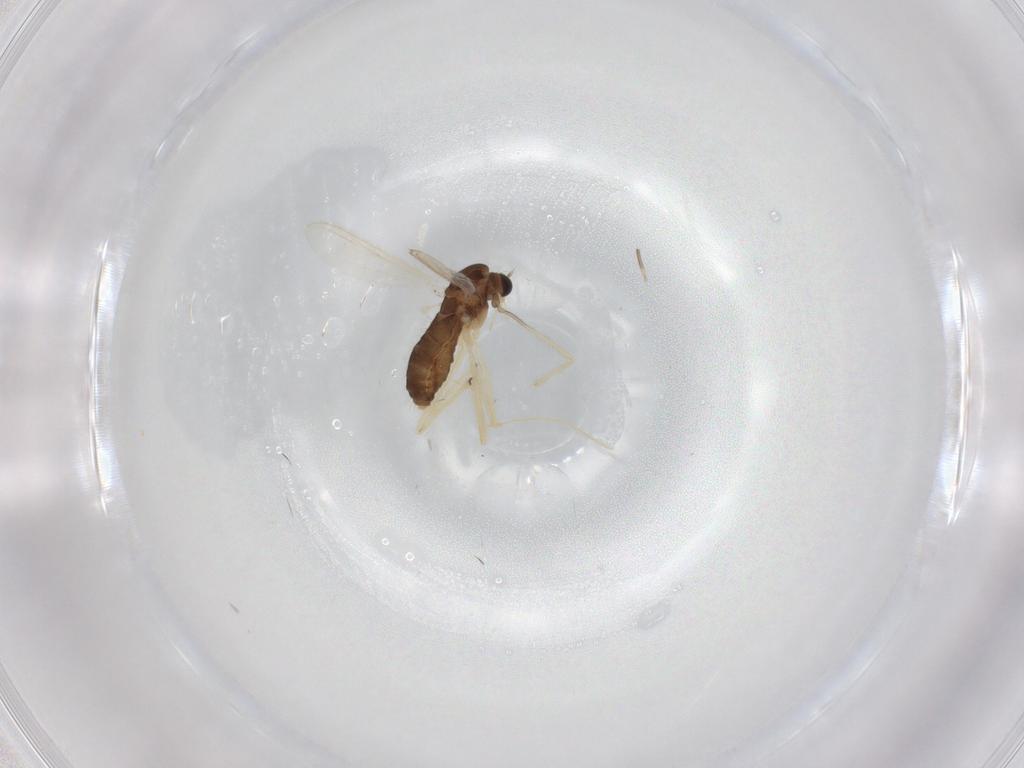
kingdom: Animalia
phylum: Arthropoda
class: Insecta
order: Diptera
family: Chironomidae
